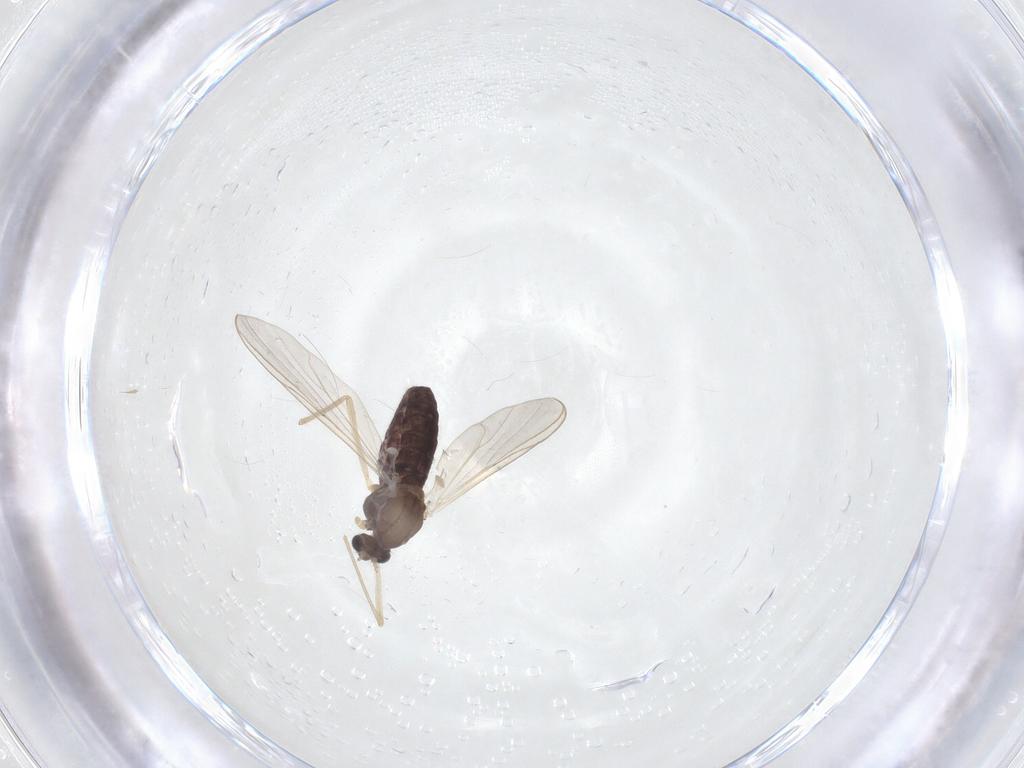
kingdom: Animalia
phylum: Arthropoda
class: Insecta
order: Diptera
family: Chironomidae
